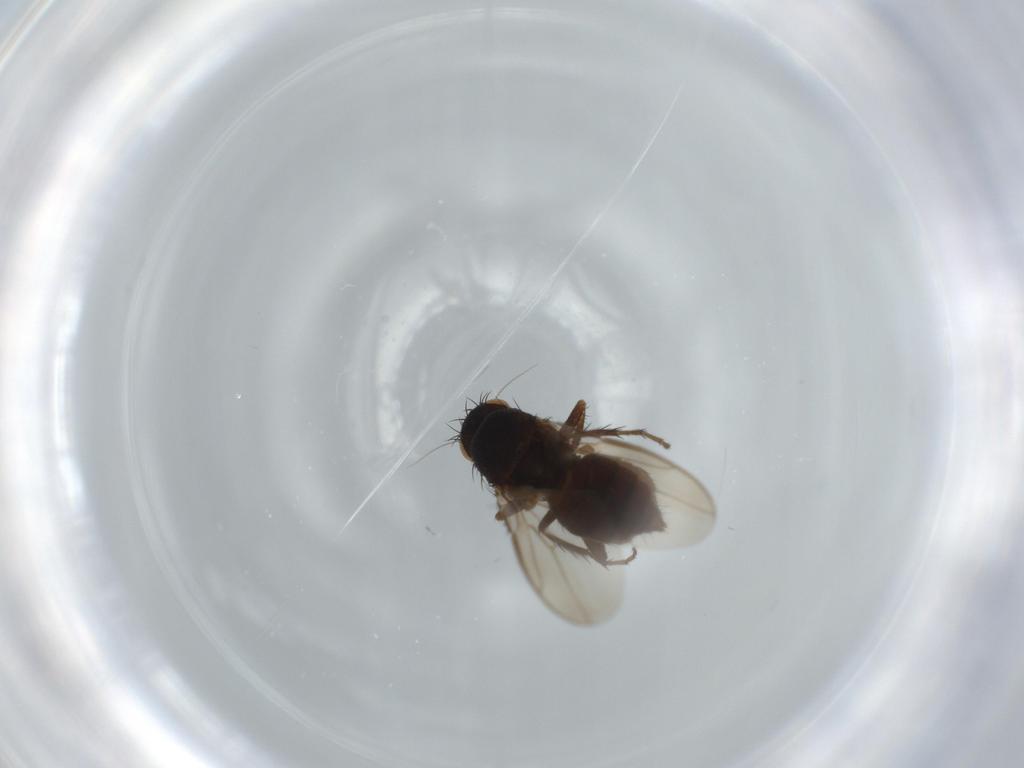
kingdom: Animalia
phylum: Arthropoda
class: Insecta
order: Diptera
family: Sphaeroceridae
